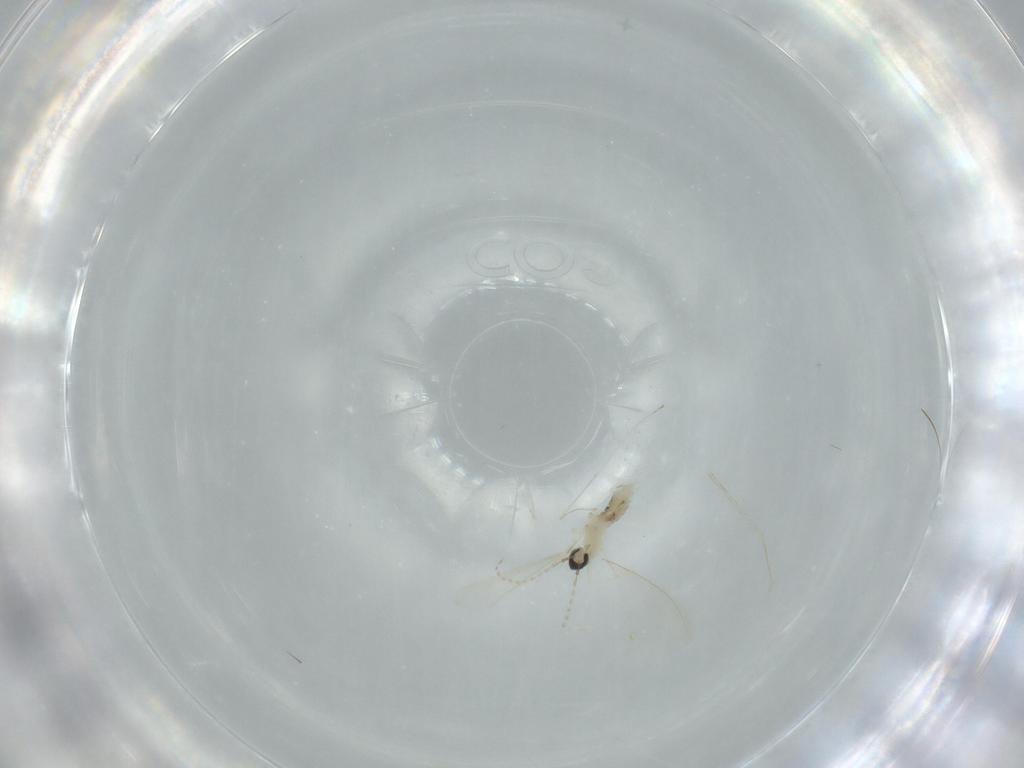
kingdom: Animalia
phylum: Arthropoda
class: Insecta
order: Diptera
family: Cecidomyiidae
